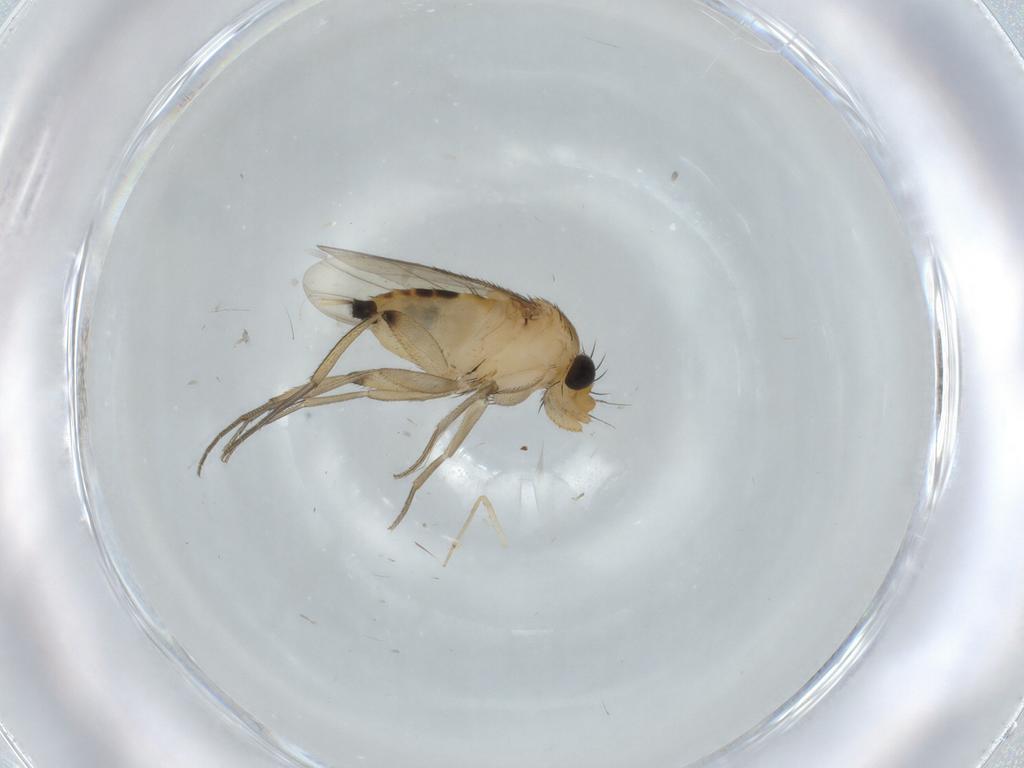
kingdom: Animalia
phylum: Arthropoda
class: Insecta
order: Diptera
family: Phoridae
